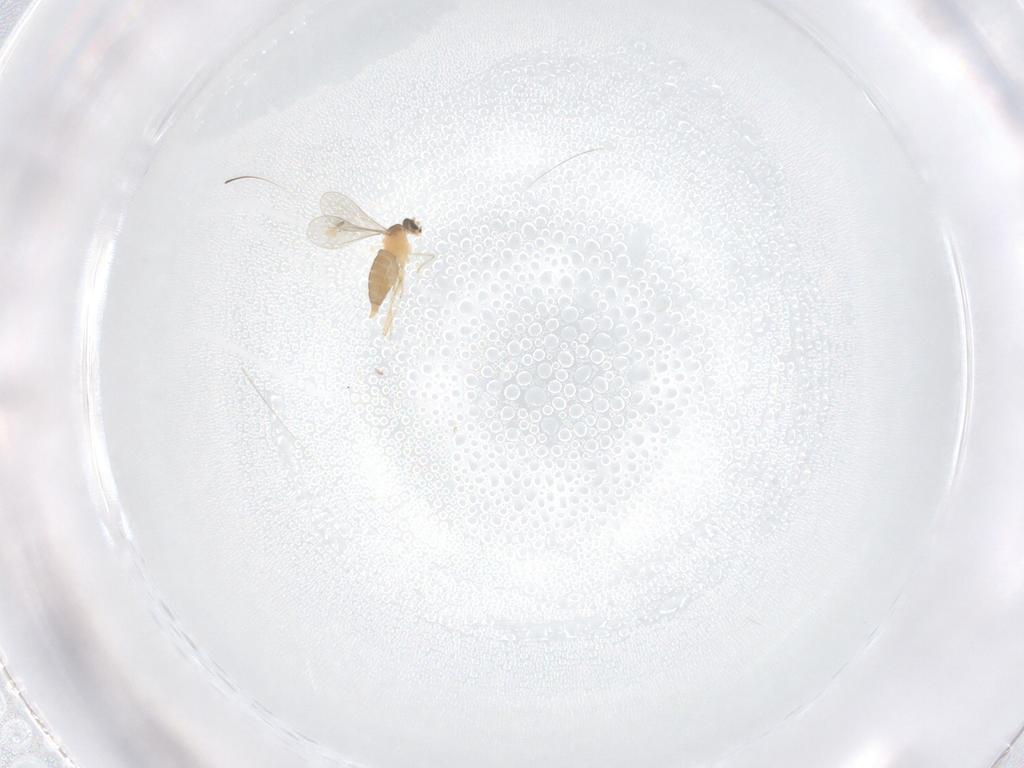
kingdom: Animalia
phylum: Arthropoda
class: Insecta
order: Diptera
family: Cecidomyiidae
